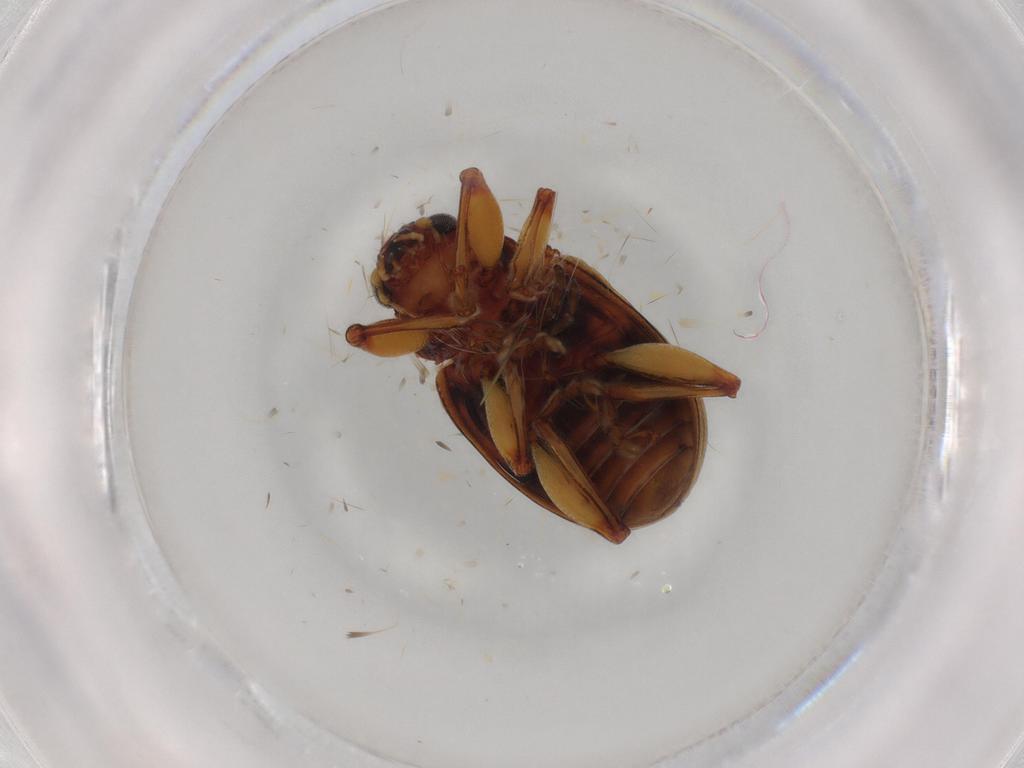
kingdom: Animalia
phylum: Arthropoda
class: Insecta
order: Coleoptera
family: Chrysomelidae
